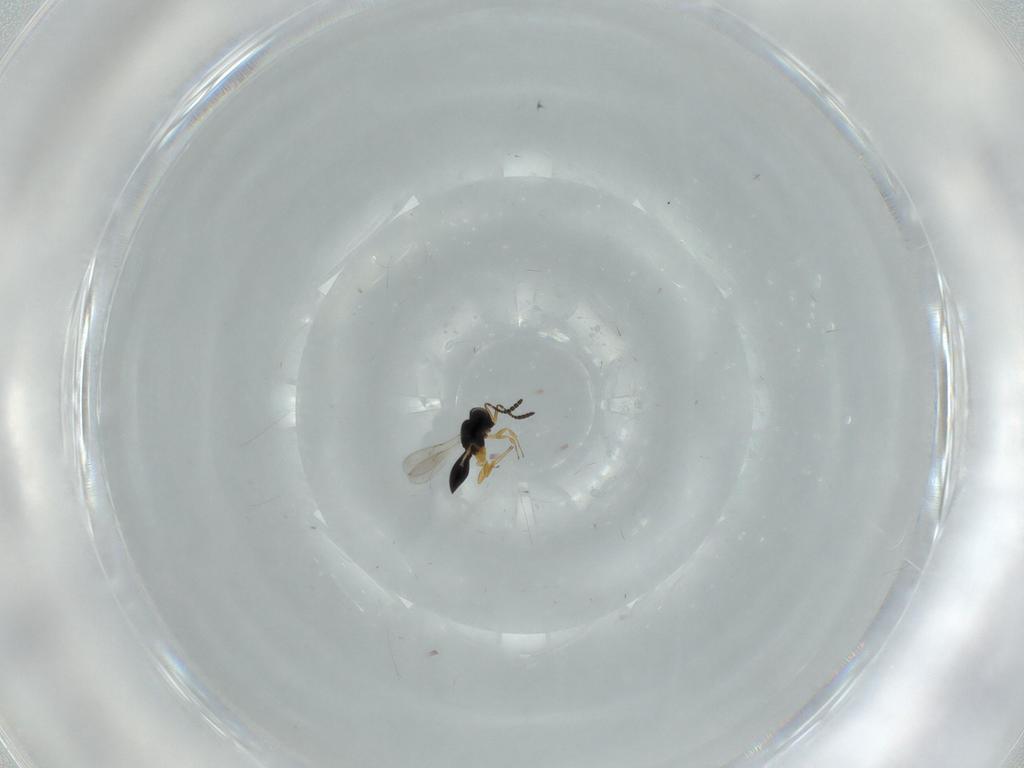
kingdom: Animalia
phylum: Arthropoda
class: Insecta
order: Hymenoptera
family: Scelionidae
